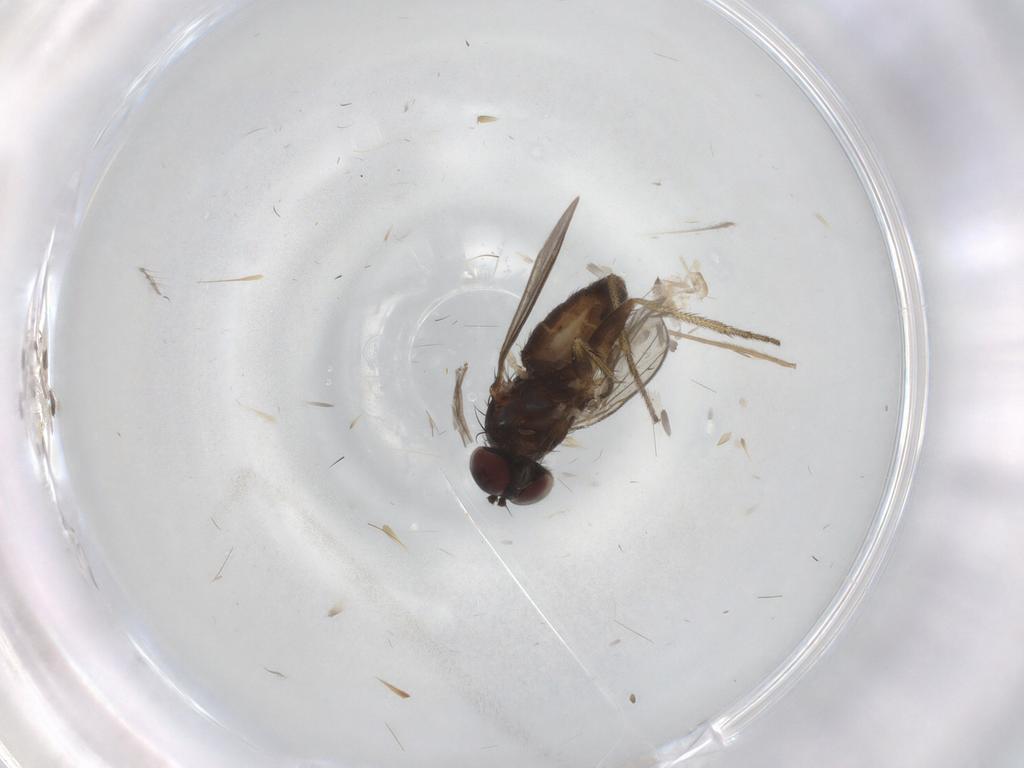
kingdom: Animalia
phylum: Arthropoda
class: Insecta
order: Diptera
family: Chironomidae
